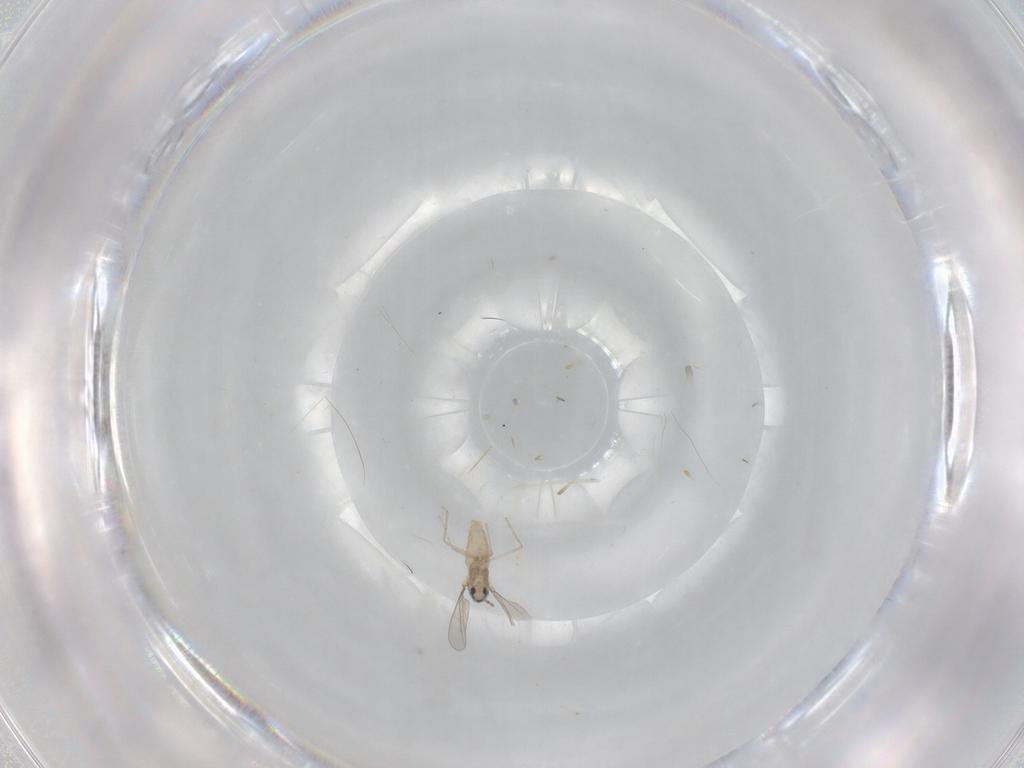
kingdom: Animalia
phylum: Arthropoda
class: Insecta
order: Diptera
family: Cecidomyiidae
